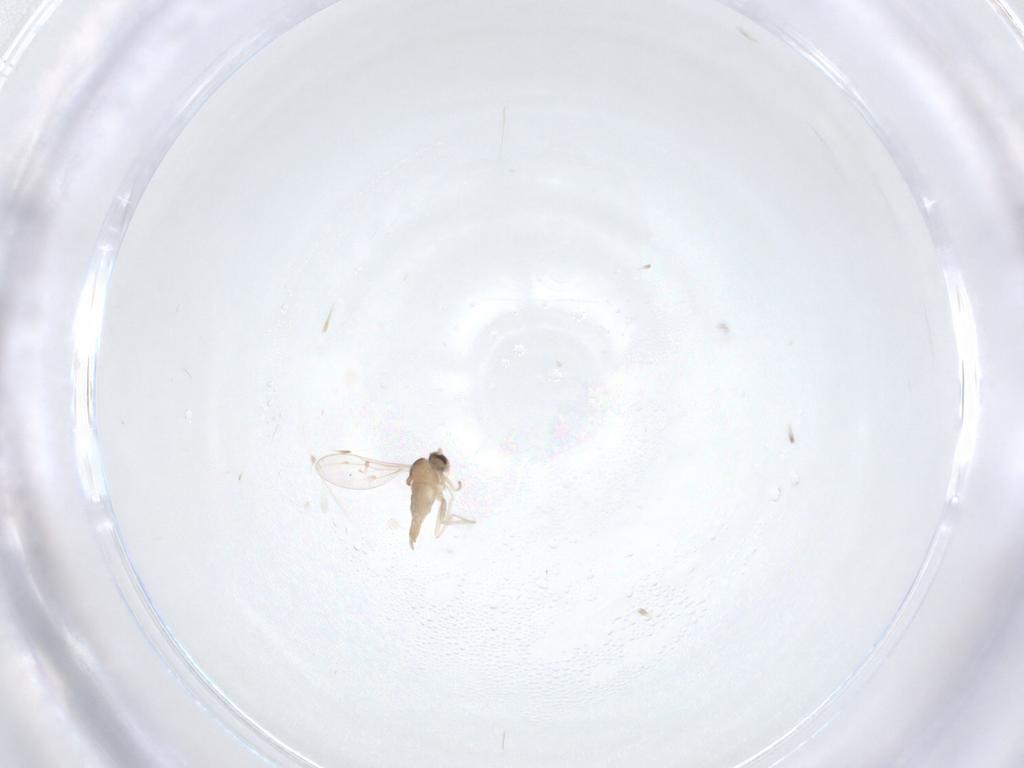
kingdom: Animalia
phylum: Arthropoda
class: Insecta
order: Diptera
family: Cecidomyiidae
